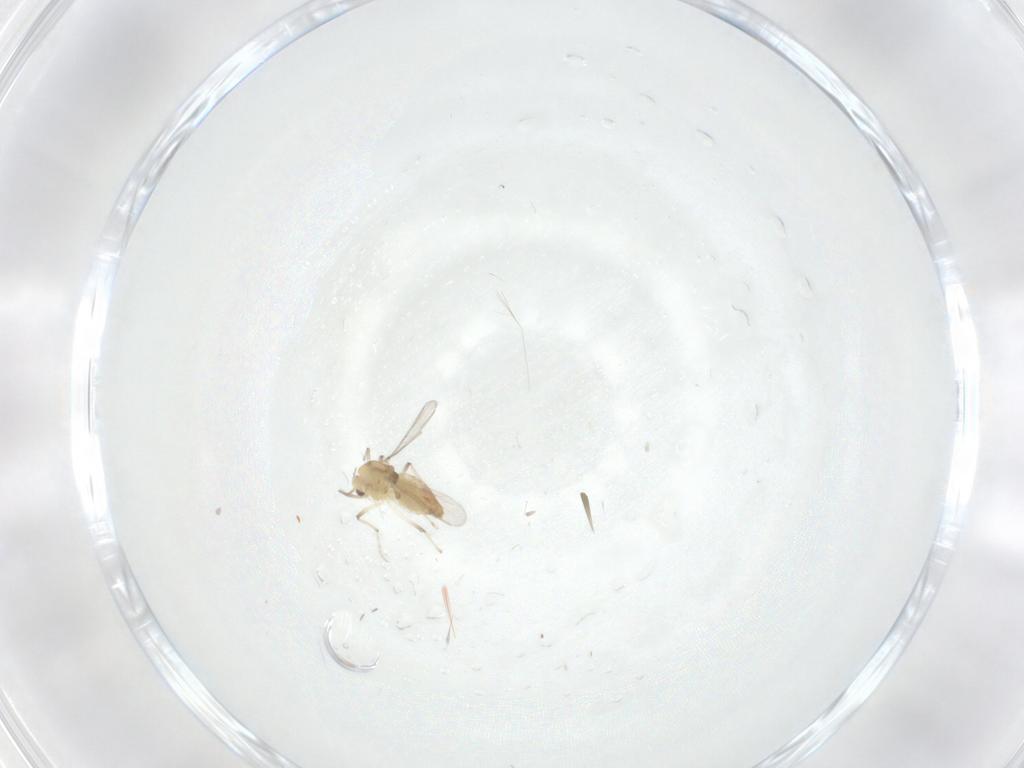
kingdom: Animalia
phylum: Arthropoda
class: Insecta
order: Diptera
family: Chironomidae
